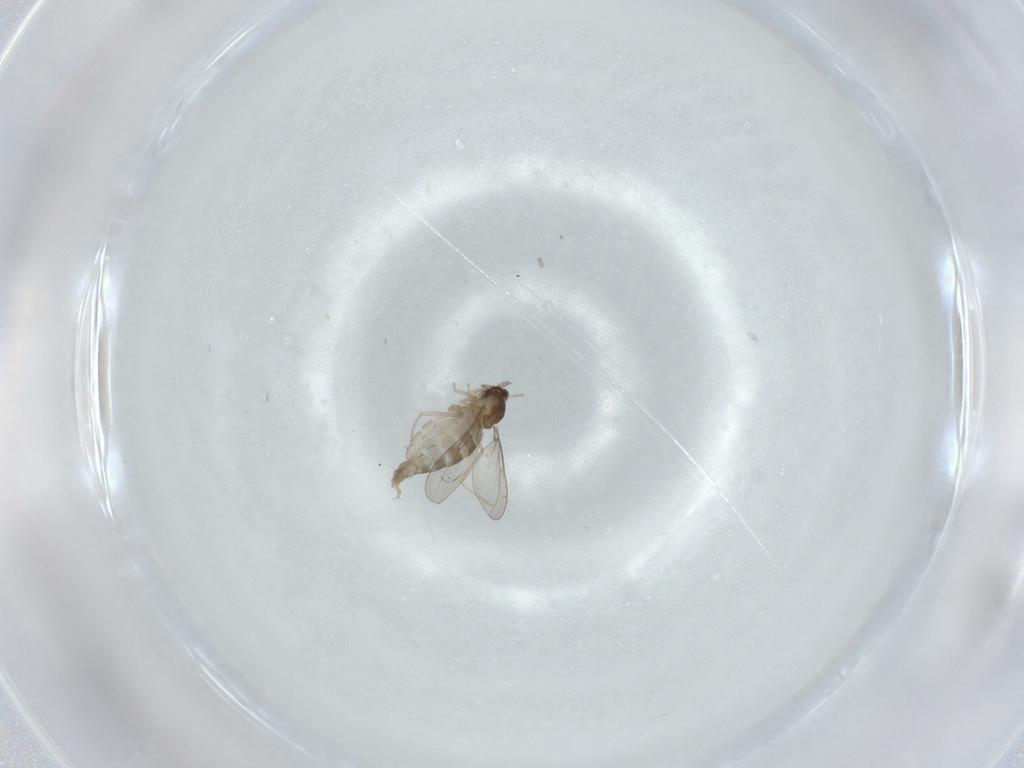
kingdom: Animalia
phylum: Arthropoda
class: Insecta
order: Diptera
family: Cecidomyiidae
